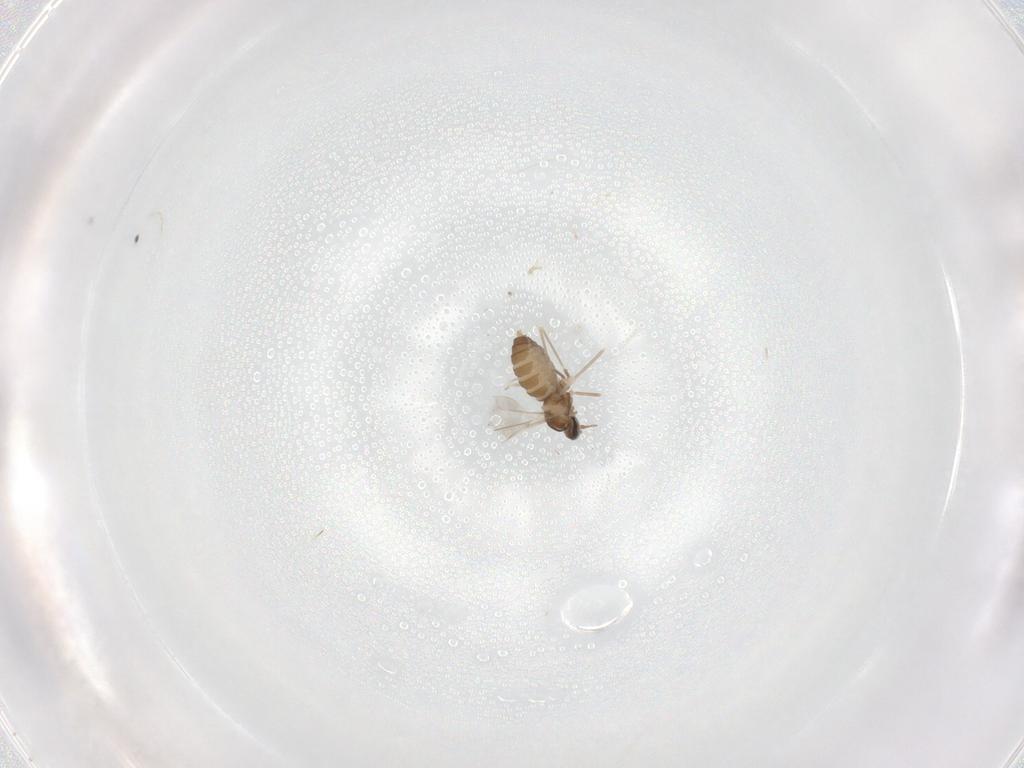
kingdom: Animalia
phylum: Arthropoda
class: Insecta
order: Diptera
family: Cecidomyiidae
